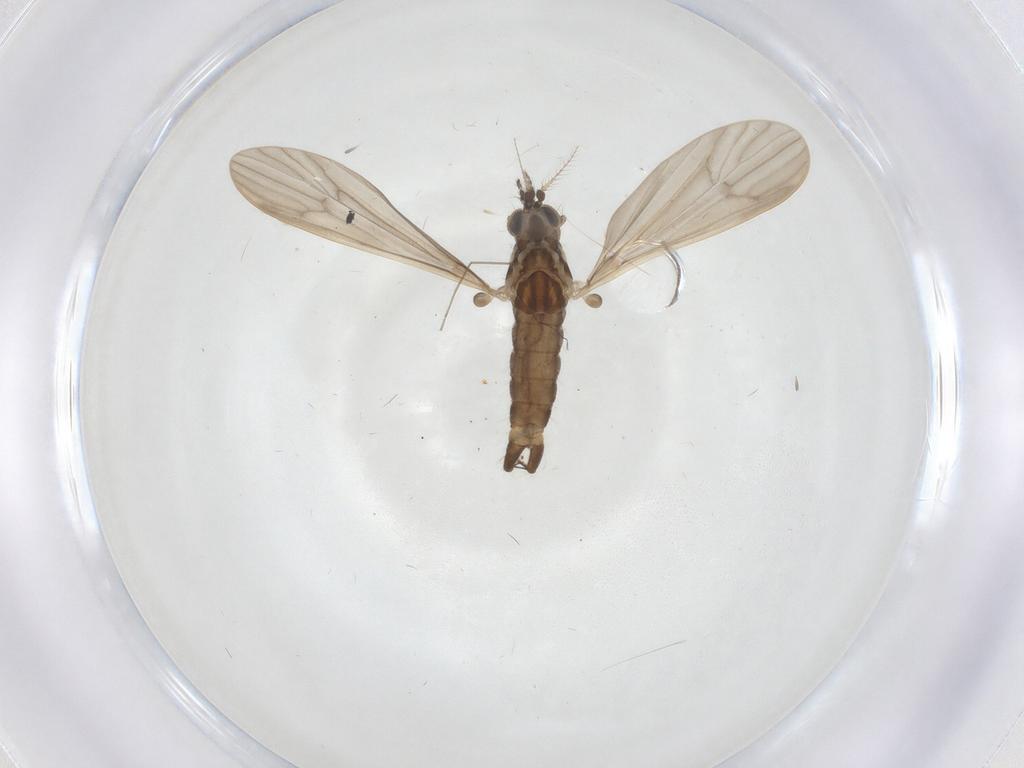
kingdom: Animalia
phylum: Arthropoda
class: Insecta
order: Diptera
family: Limoniidae
